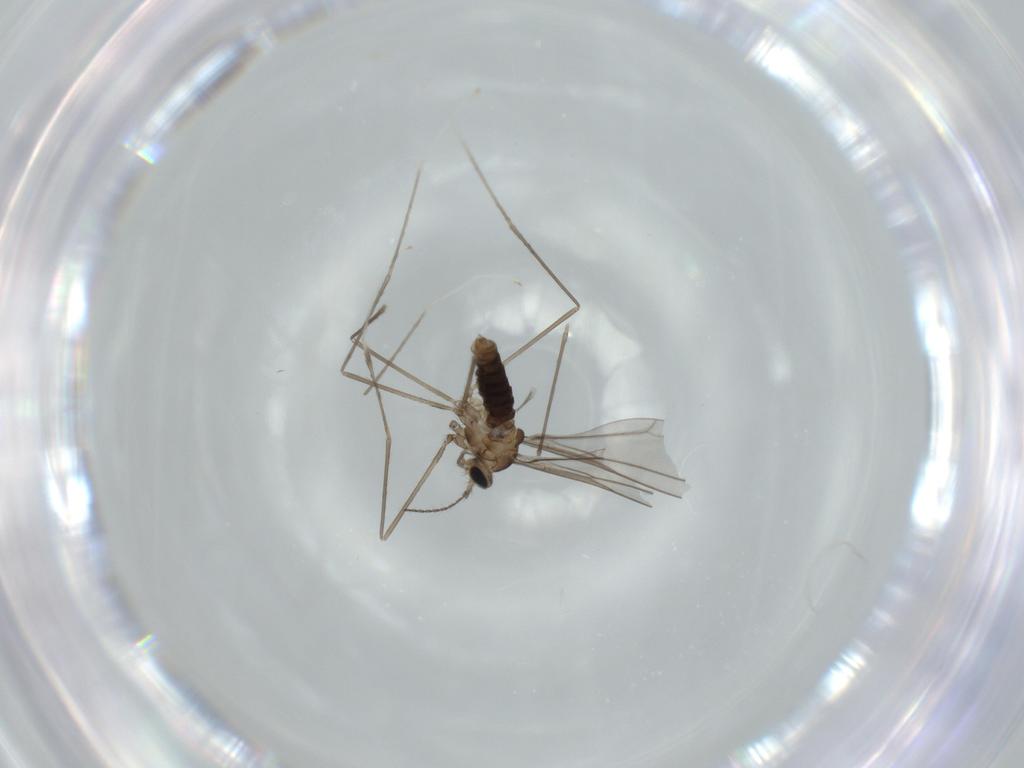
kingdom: Animalia
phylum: Arthropoda
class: Insecta
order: Diptera
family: Cecidomyiidae
